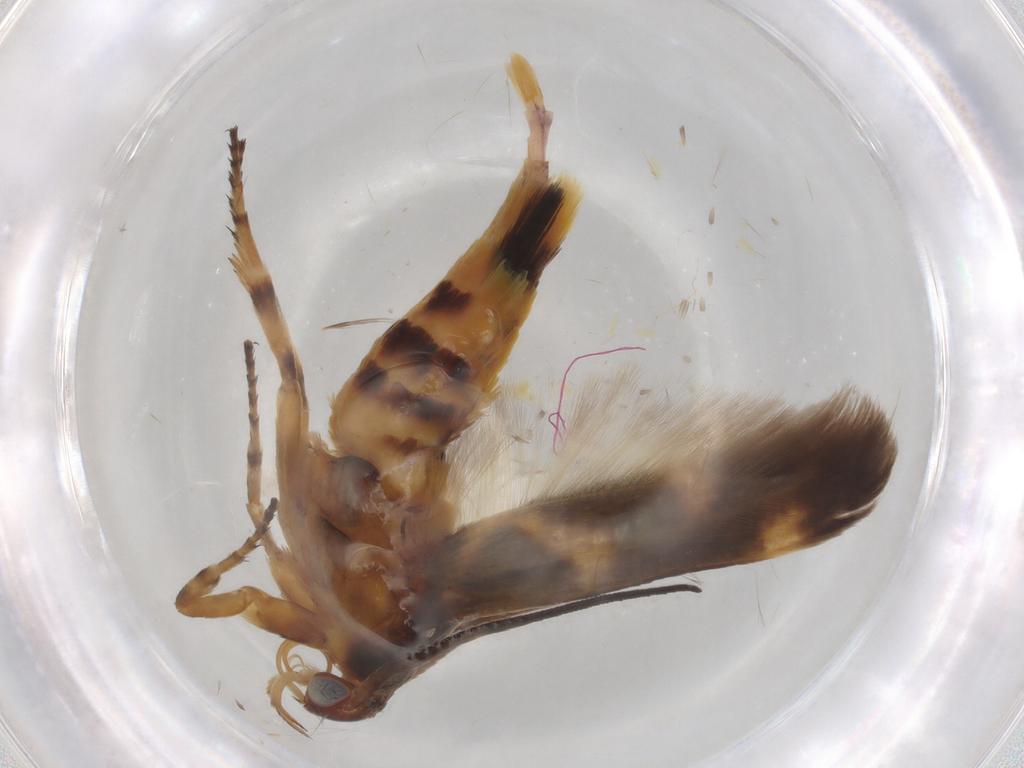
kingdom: Animalia
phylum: Arthropoda
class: Insecta
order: Lepidoptera
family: Scythrididae
